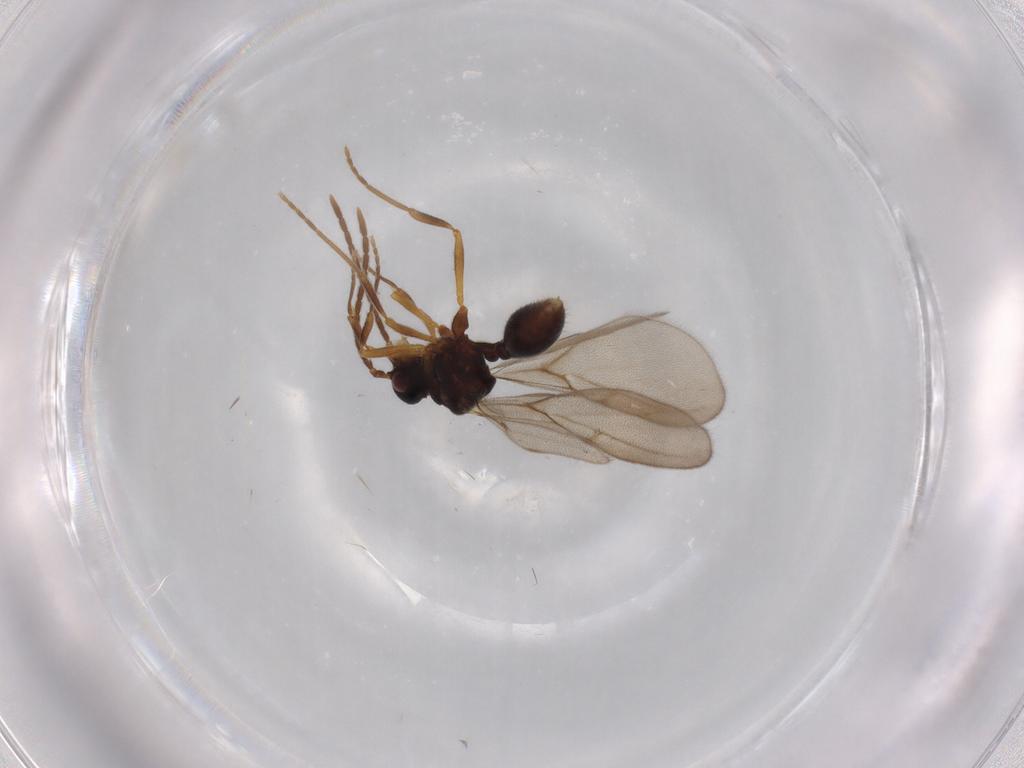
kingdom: Animalia
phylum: Arthropoda
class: Insecta
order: Hymenoptera
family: Formicidae
